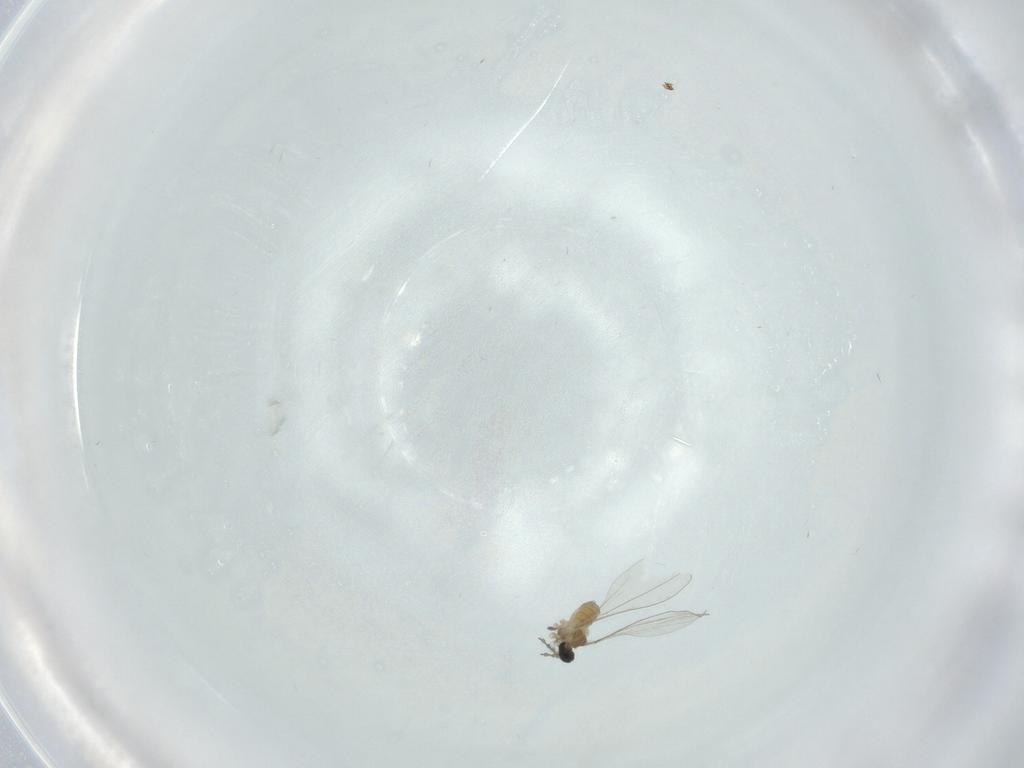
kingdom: Animalia
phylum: Arthropoda
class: Insecta
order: Diptera
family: Cecidomyiidae
